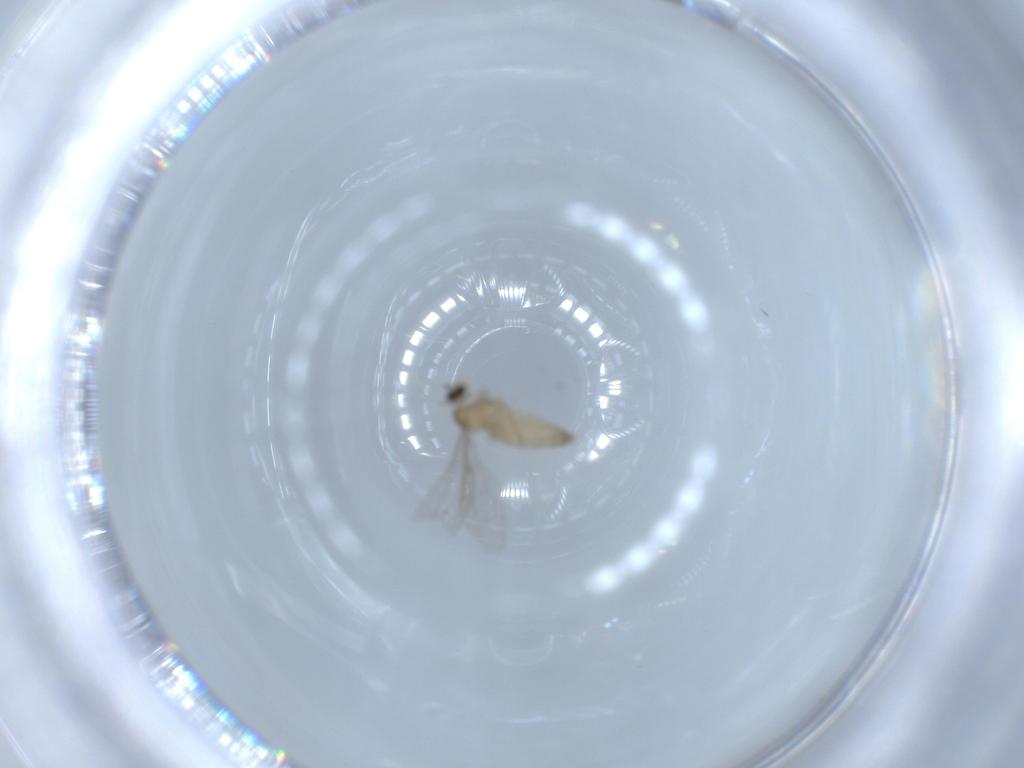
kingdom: Animalia
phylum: Arthropoda
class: Insecta
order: Diptera
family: Asilidae
